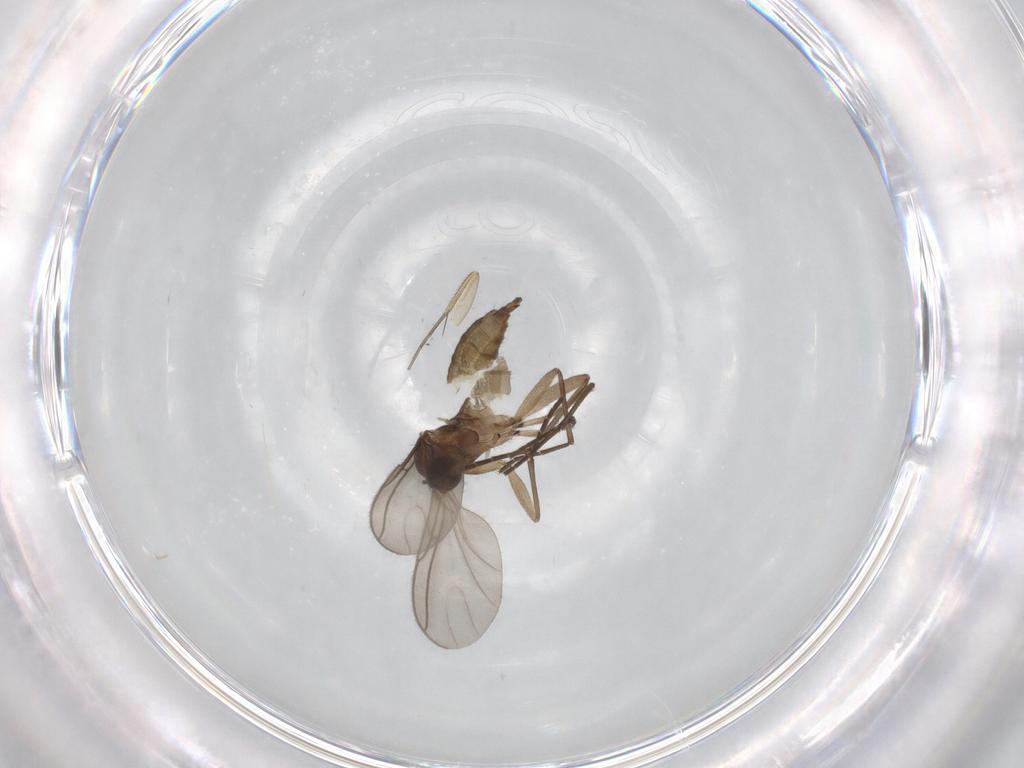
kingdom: Animalia
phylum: Arthropoda
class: Insecta
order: Diptera
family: Sciaridae
